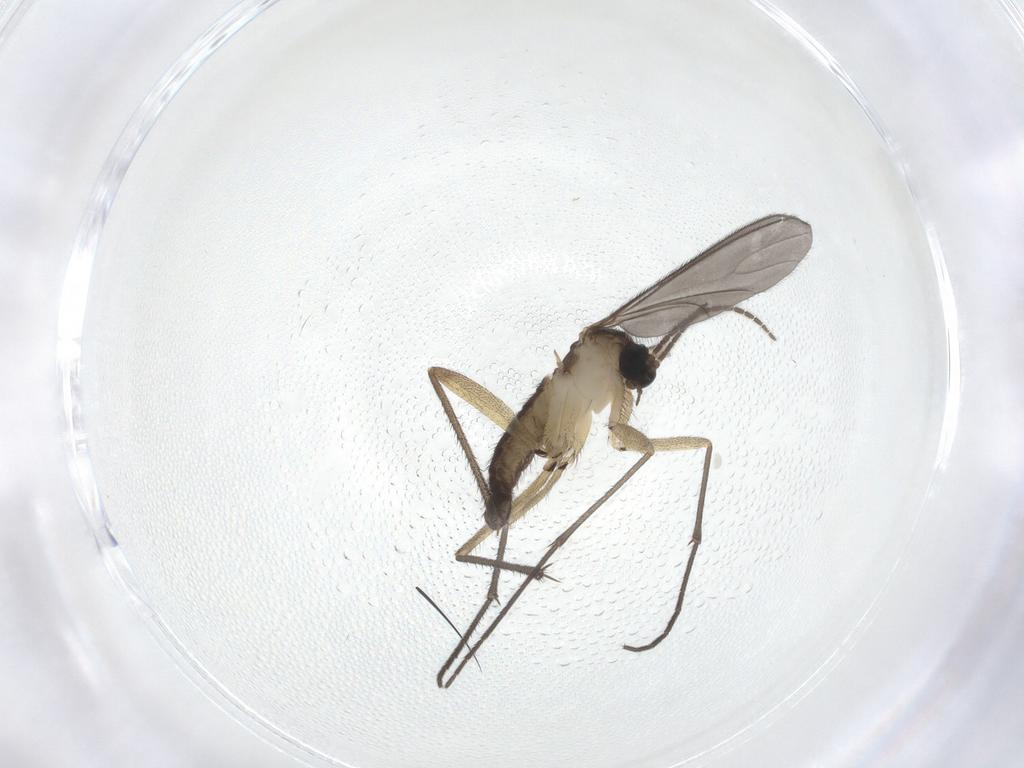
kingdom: Animalia
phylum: Arthropoda
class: Insecta
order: Diptera
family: Sciaridae
